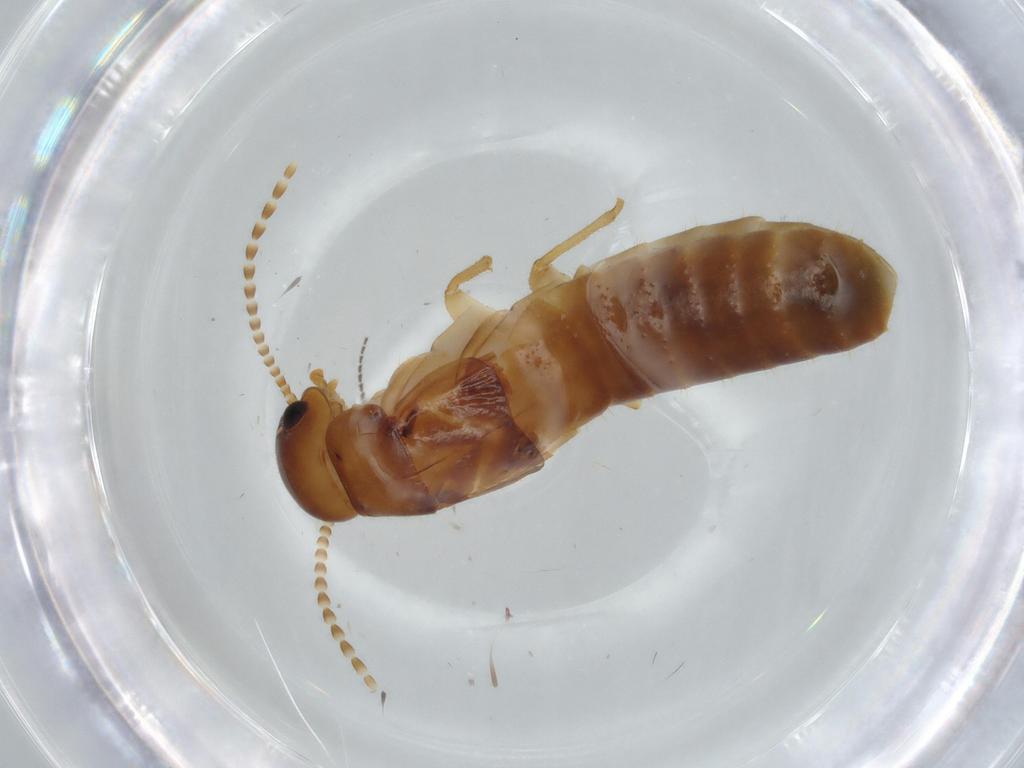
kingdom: Animalia
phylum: Arthropoda
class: Insecta
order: Blattodea
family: Kalotermitidae
